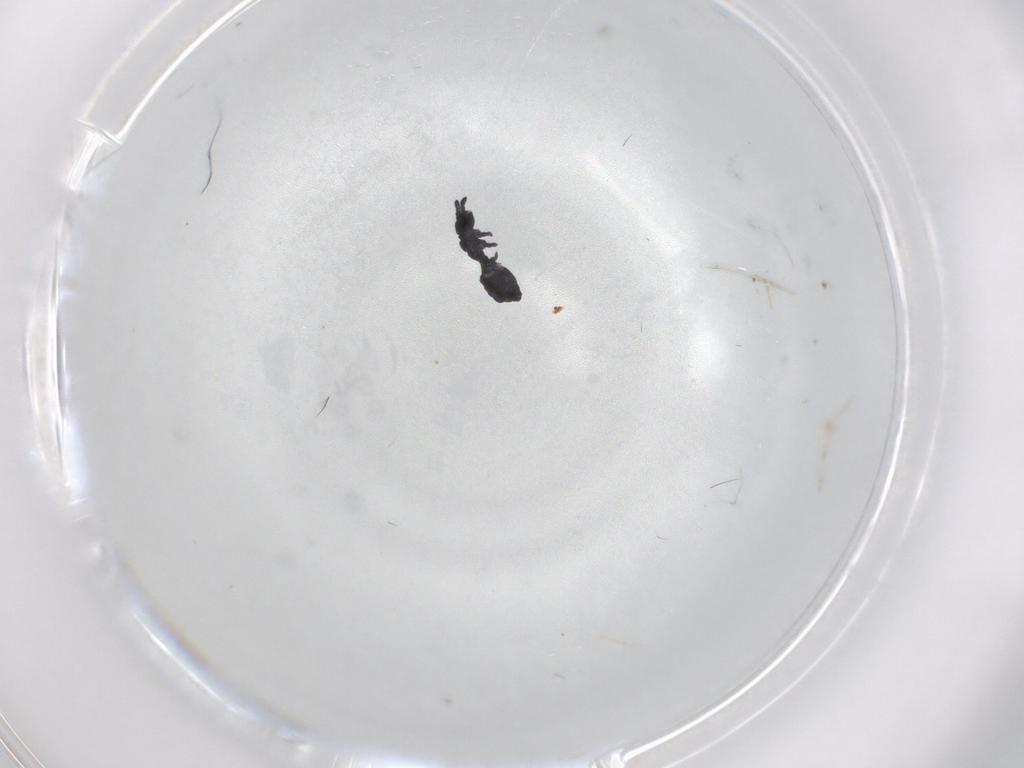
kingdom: Animalia
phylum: Arthropoda
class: Collembola
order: Poduromorpha
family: Hypogastruridae
